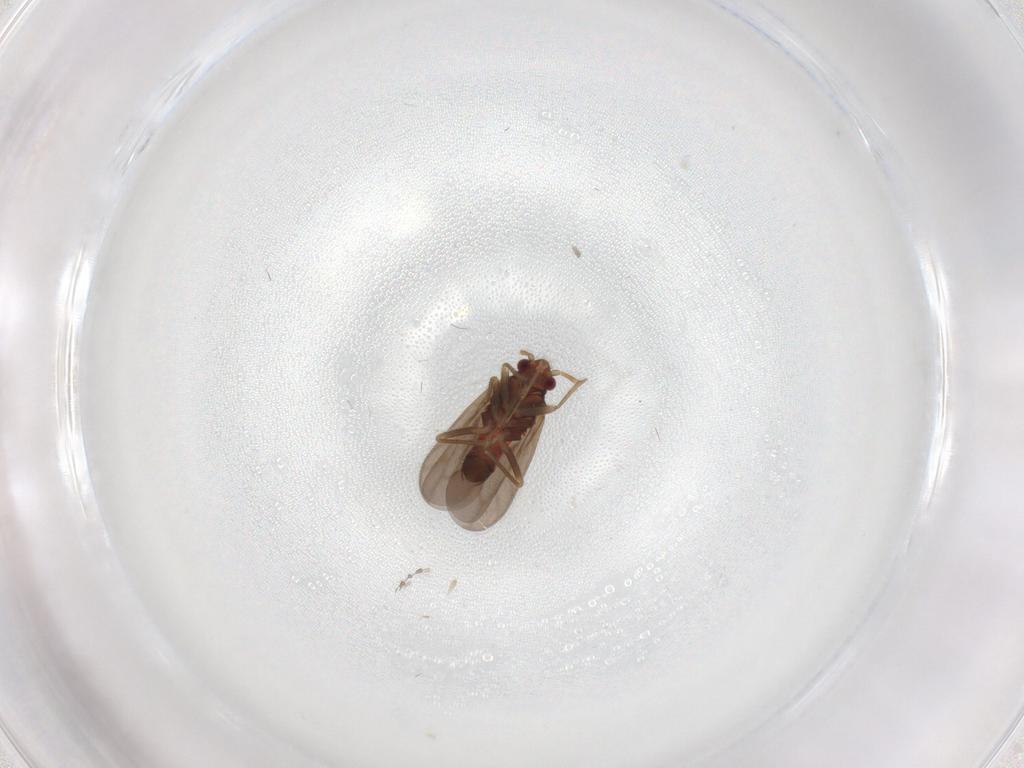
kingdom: Animalia
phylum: Arthropoda
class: Insecta
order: Hemiptera
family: Ceratocombidae
